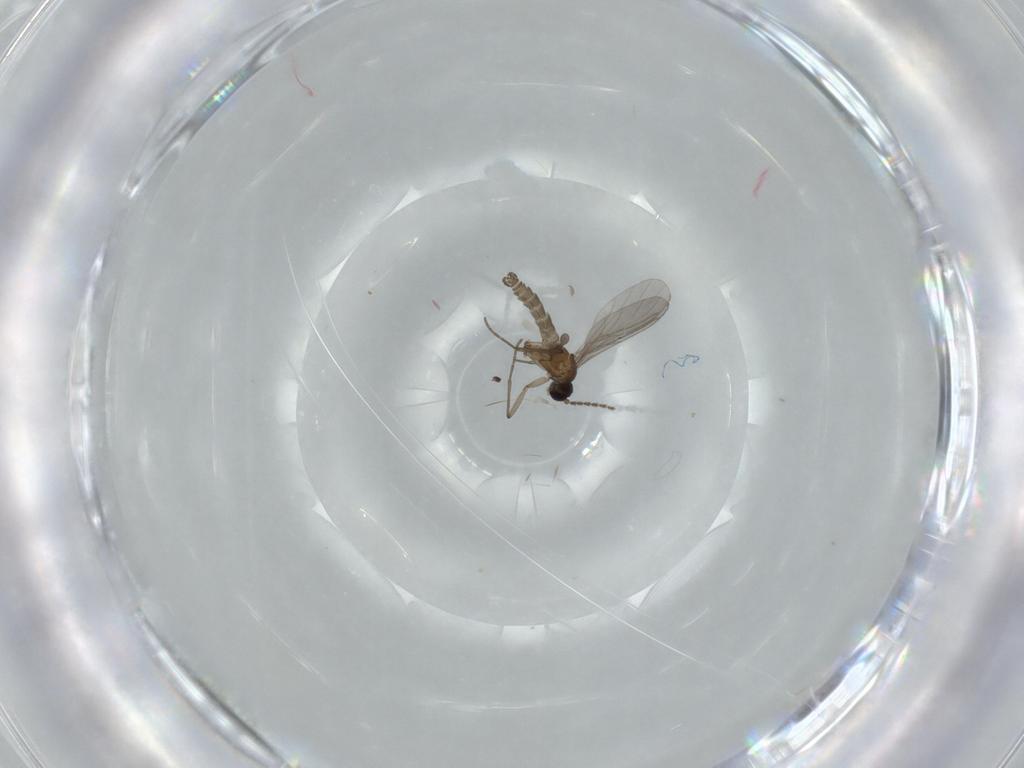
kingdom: Animalia
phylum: Arthropoda
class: Insecta
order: Diptera
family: Sciaridae
